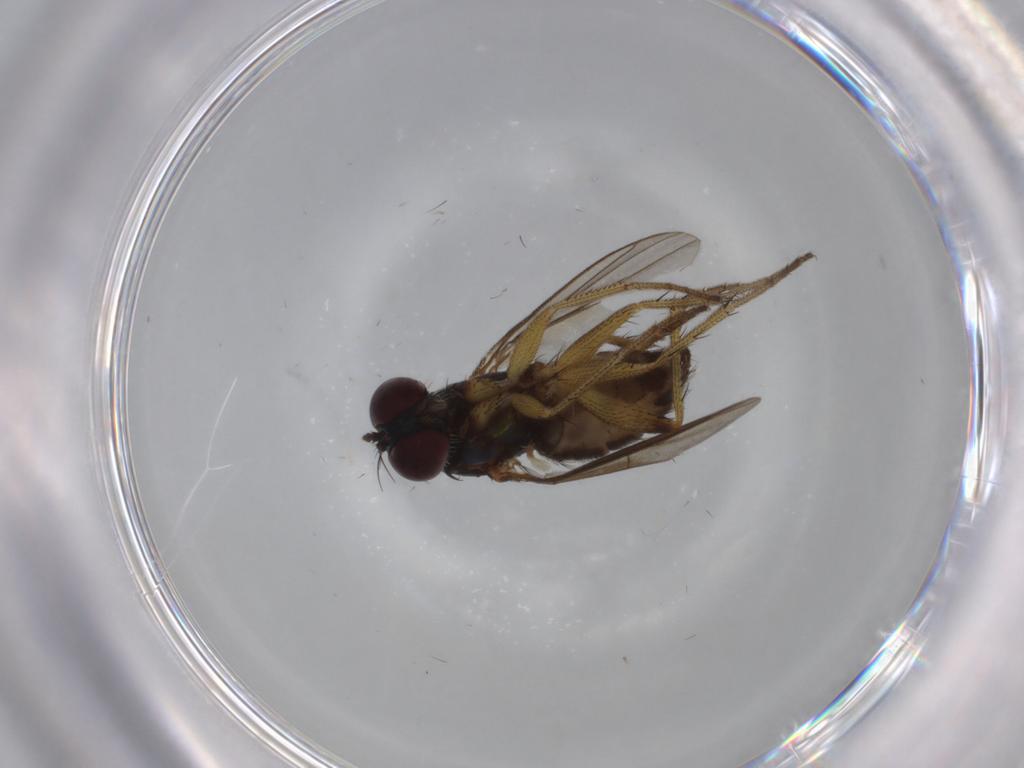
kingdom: Animalia
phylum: Arthropoda
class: Insecta
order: Diptera
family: Dolichopodidae
